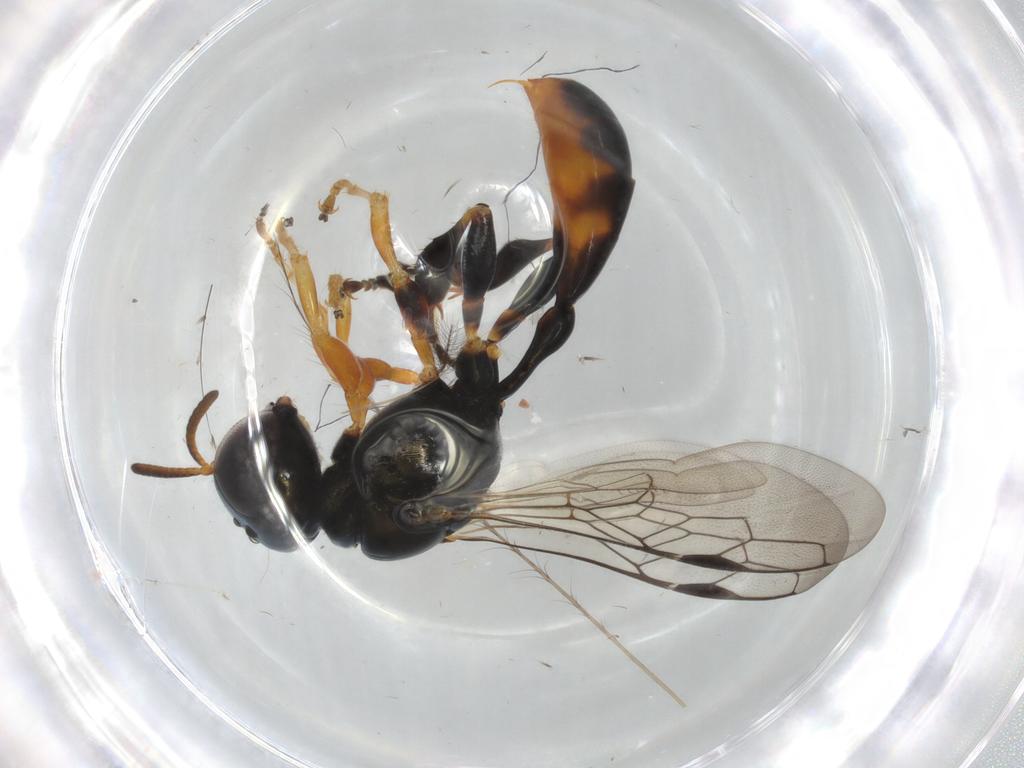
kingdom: Animalia
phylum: Arthropoda
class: Insecta
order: Hymenoptera
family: Crabronidae
